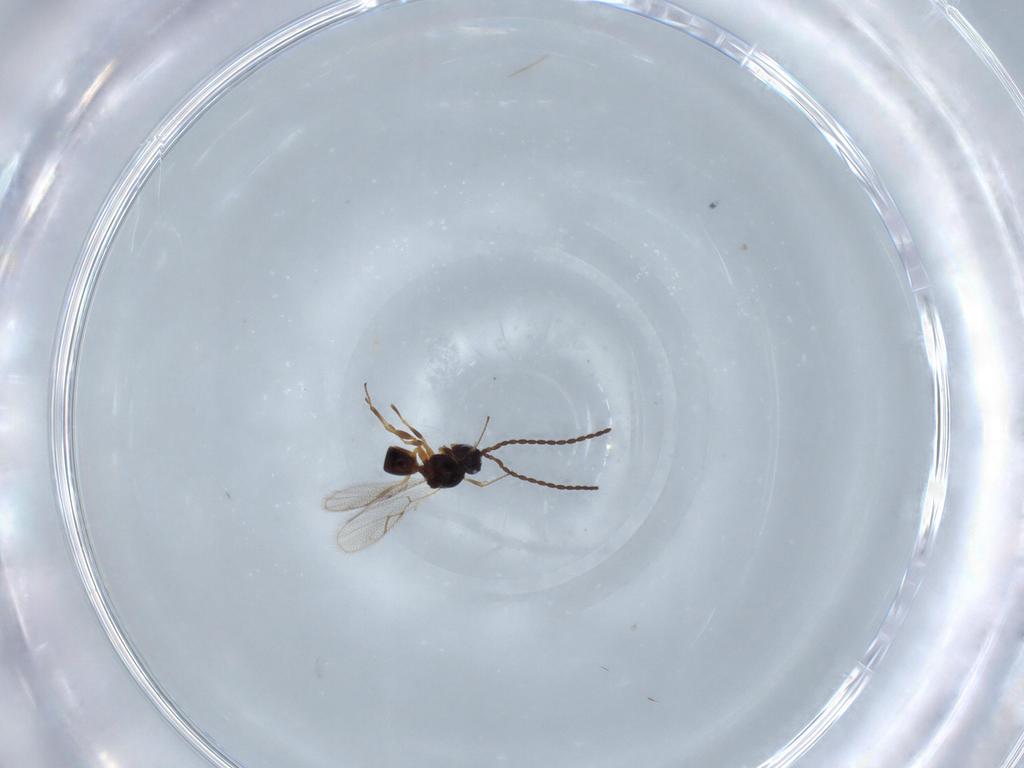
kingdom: Animalia
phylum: Arthropoda
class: Insecta
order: Hymenoptera
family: Figitidae
